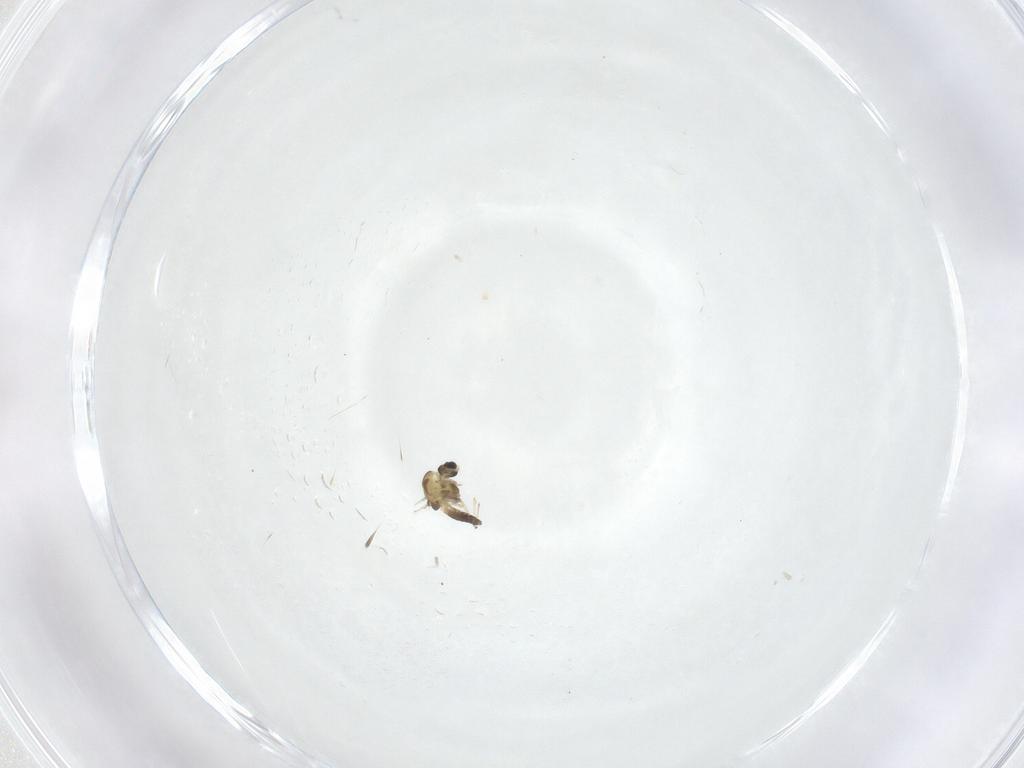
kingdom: Animalia
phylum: Arthropoda
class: Insecta
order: Diptera
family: Chironomidae
